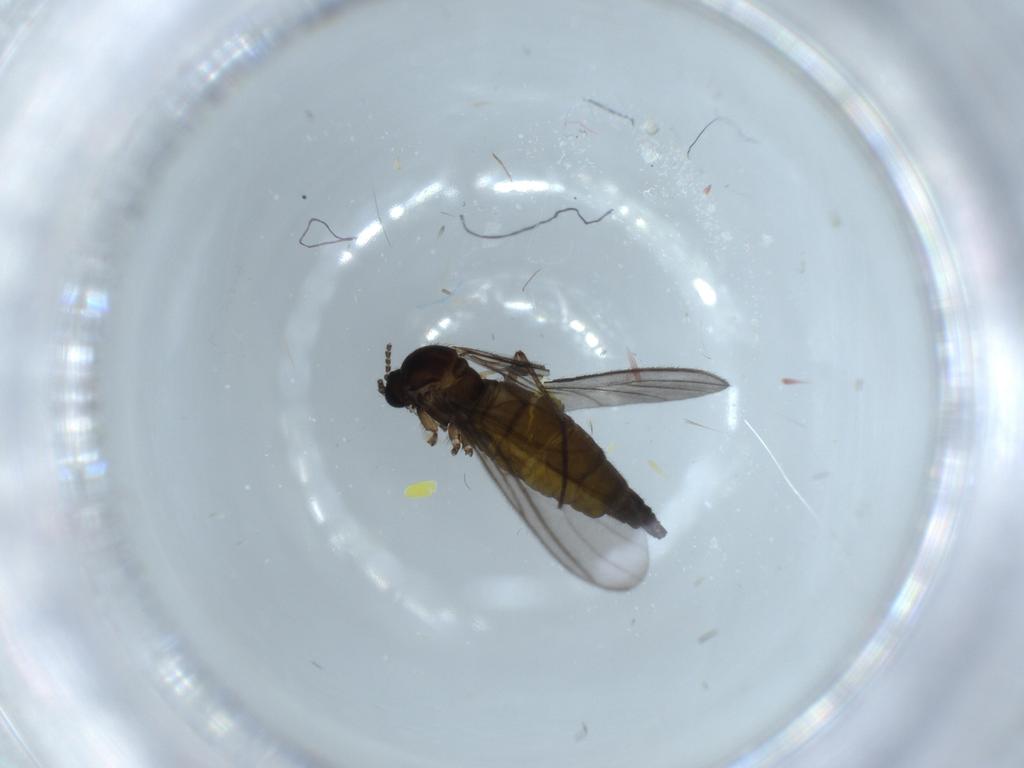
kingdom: Animalia
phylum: Arthropoda
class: Insecta
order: Diptera
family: Sciaridae
